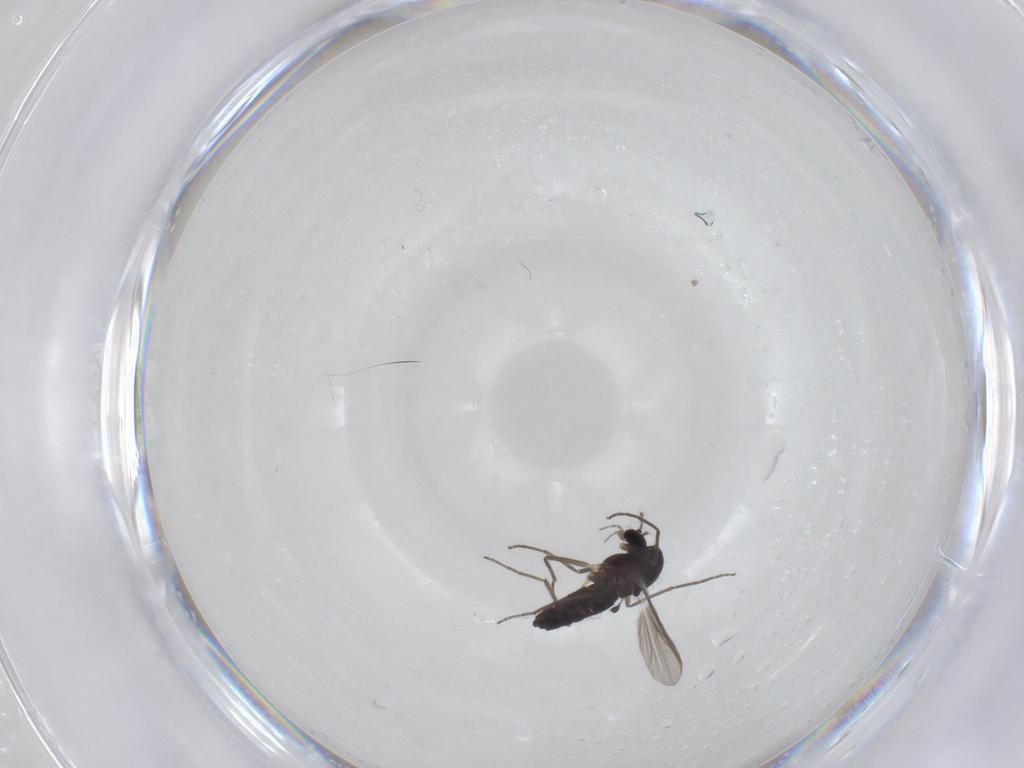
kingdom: Animalia
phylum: Arthropoda
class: Insecta
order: Diptera
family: Chironomidae
